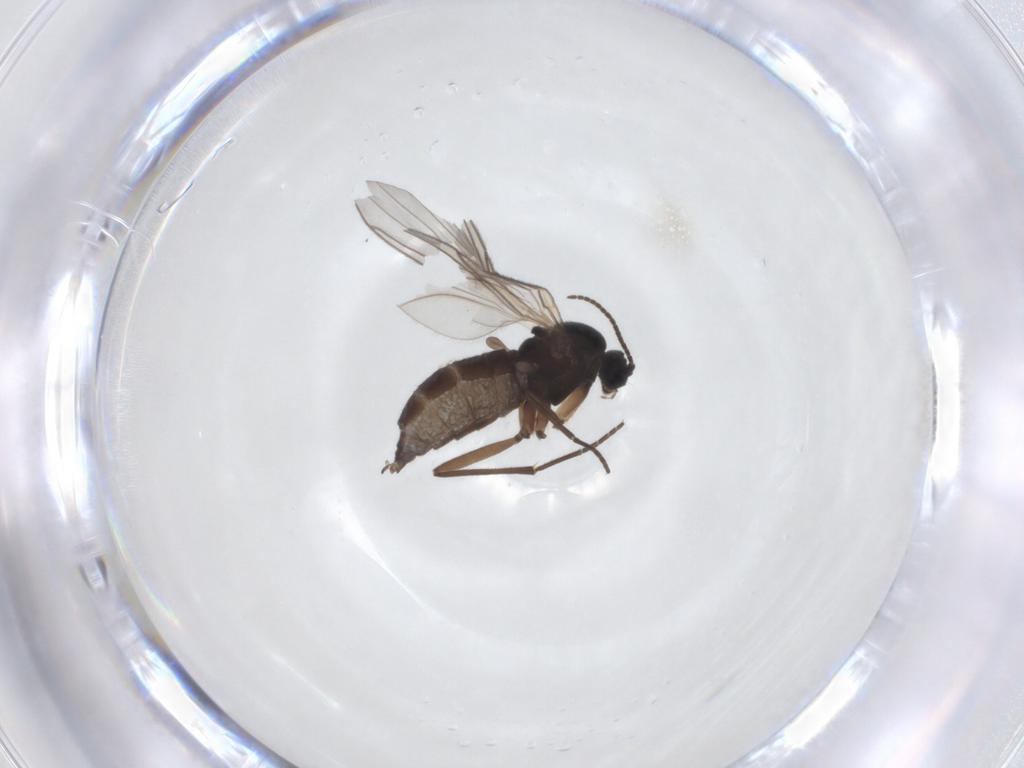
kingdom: Animalia
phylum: Arthropoda
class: Insecta
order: Diptera
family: Sciaridae
